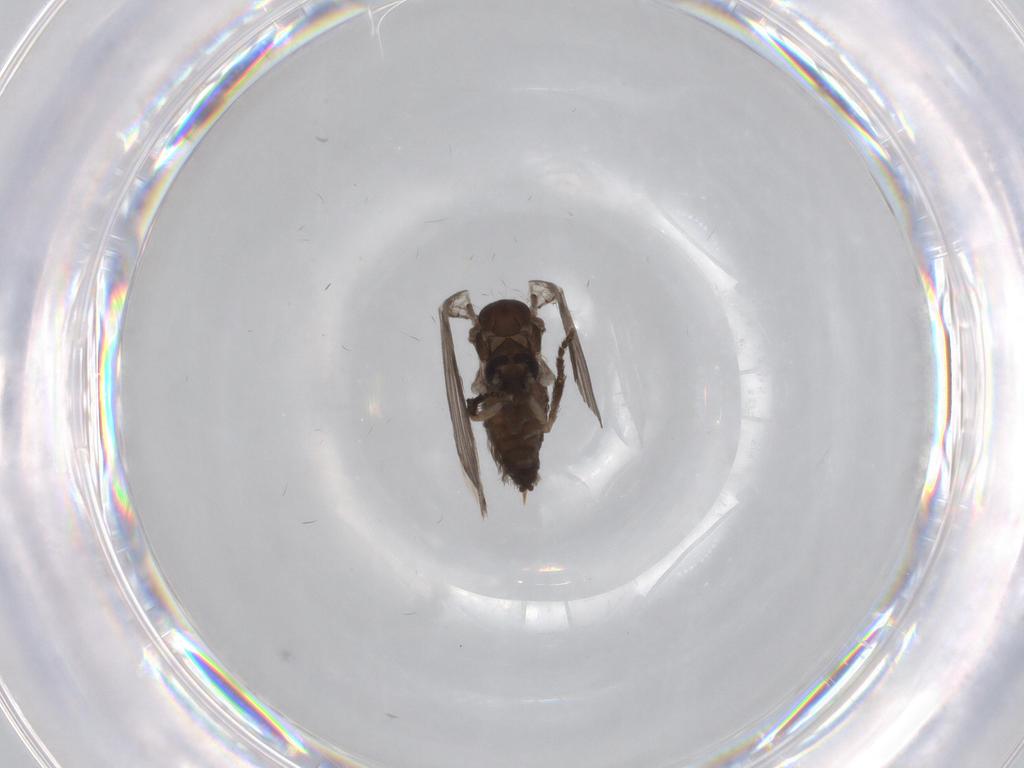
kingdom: Animalia
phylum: Arthropoda
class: Insecta
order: Diptera
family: Psychodidae
